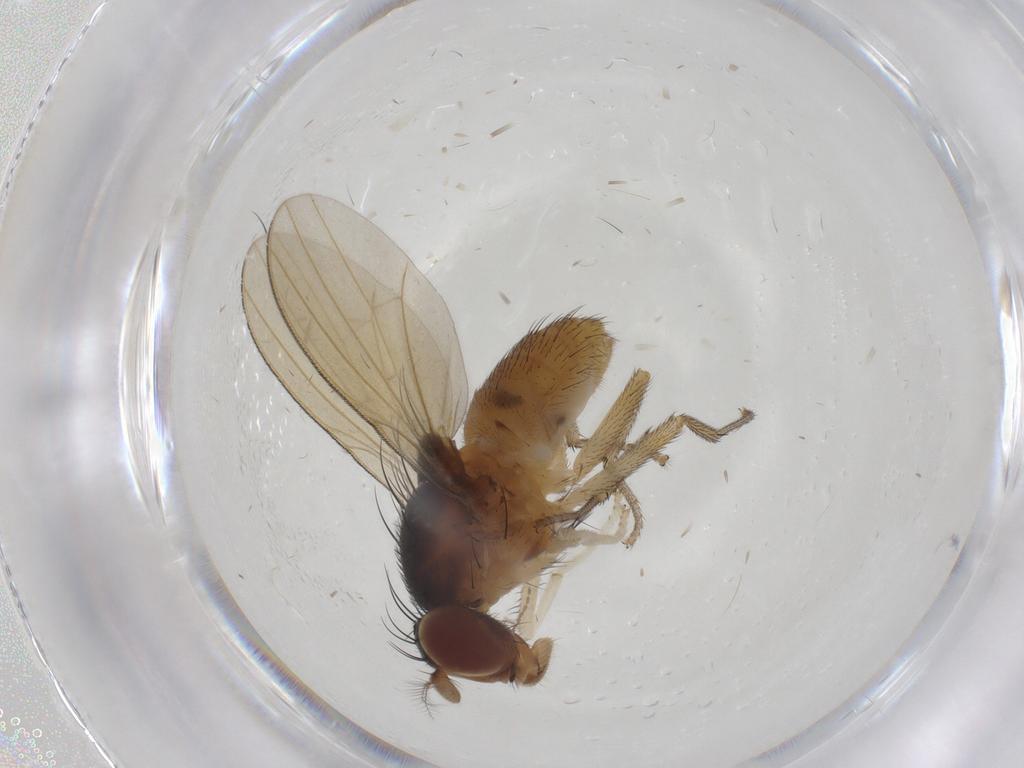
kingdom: Animalia
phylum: Arthropoda
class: Insecta
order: Diptera
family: Lauxaniidae
